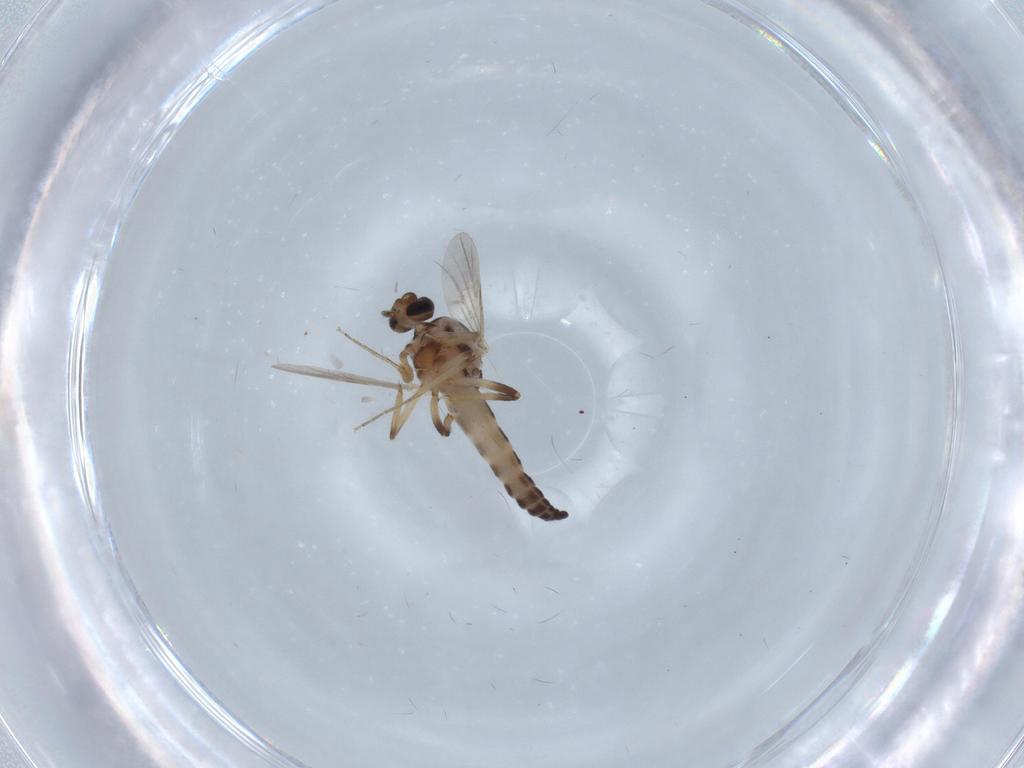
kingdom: Animalia
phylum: Arthropoda
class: Insecta
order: Diptera
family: Ceratopogonidae
